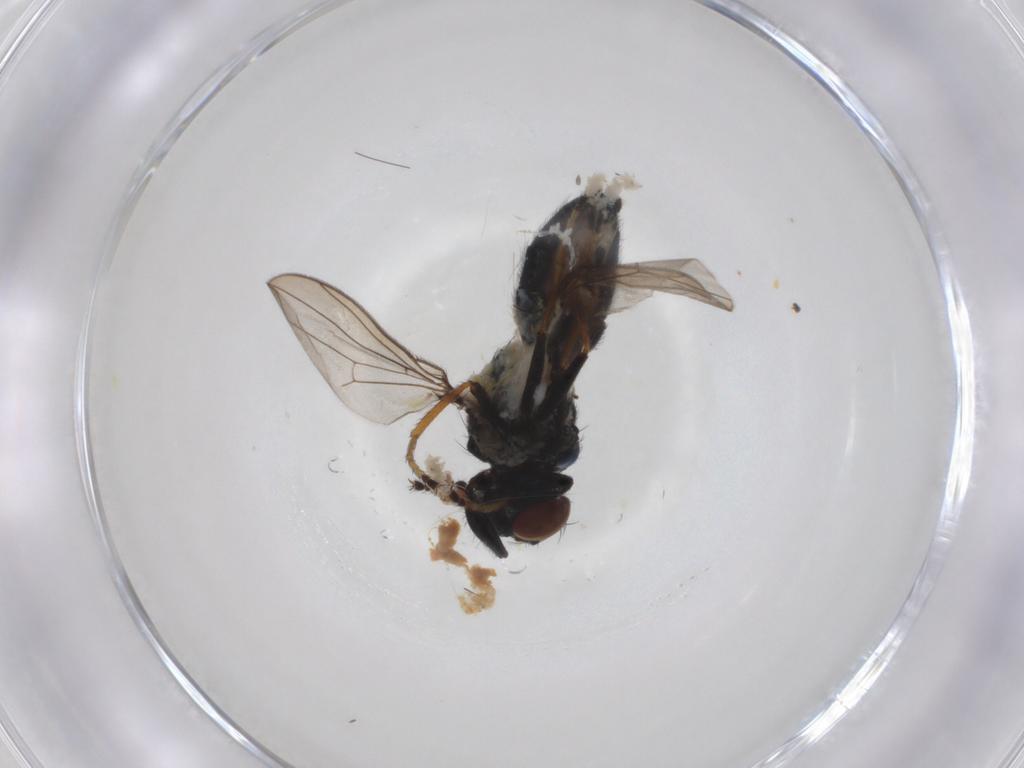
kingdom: Animalia
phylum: Arthropoda
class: Insecta
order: Diptera
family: Ephydridae
